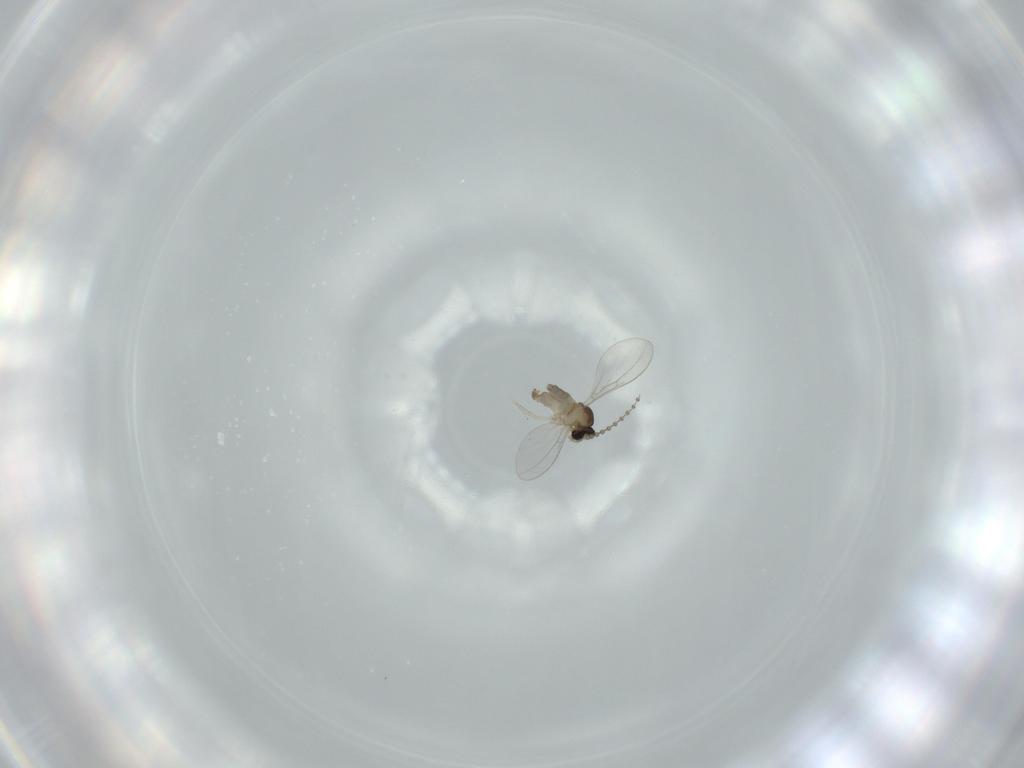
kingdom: Animalia
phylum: Arthropoda
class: Insecta
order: Diptera
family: Cecidomyiidae
